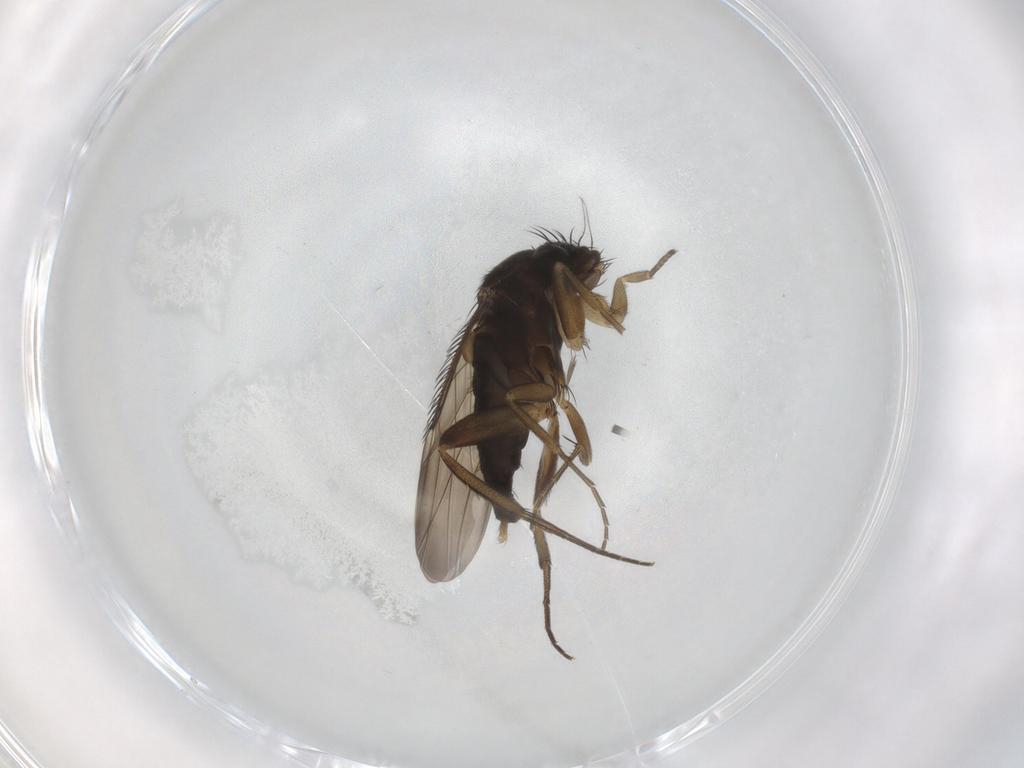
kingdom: Animalia
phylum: Arthropoda
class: Insecta
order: Diptera
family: Phoridae
